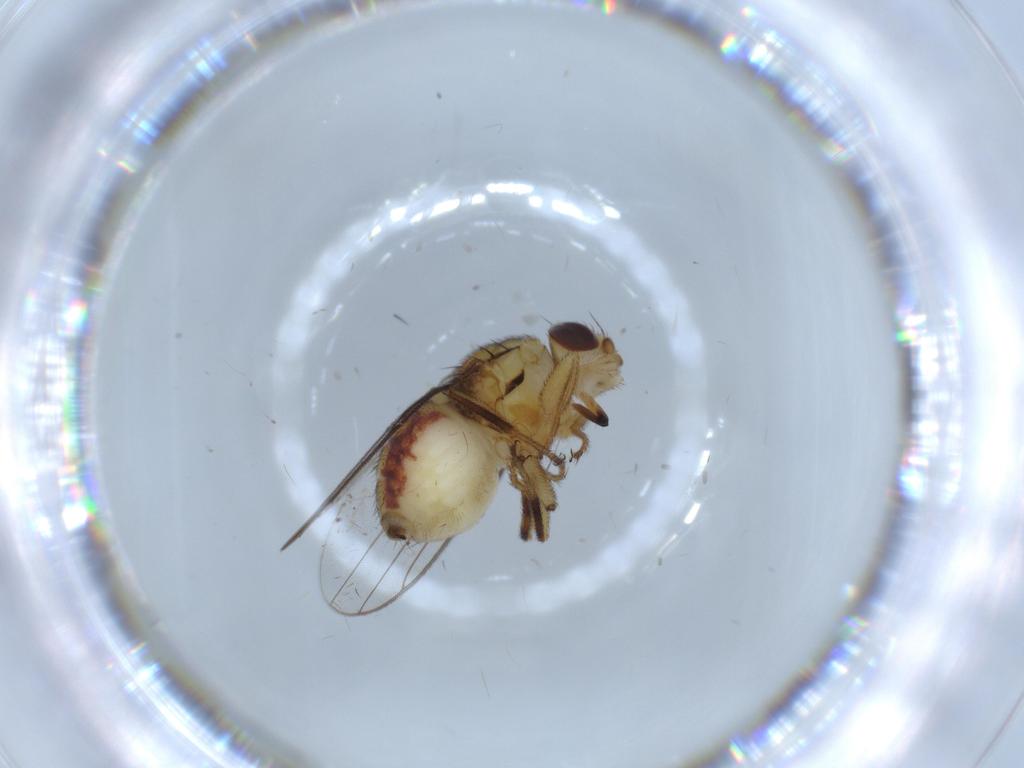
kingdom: Animalia
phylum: Arthropoda
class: Insecta
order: Diptera
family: Chloropidae
